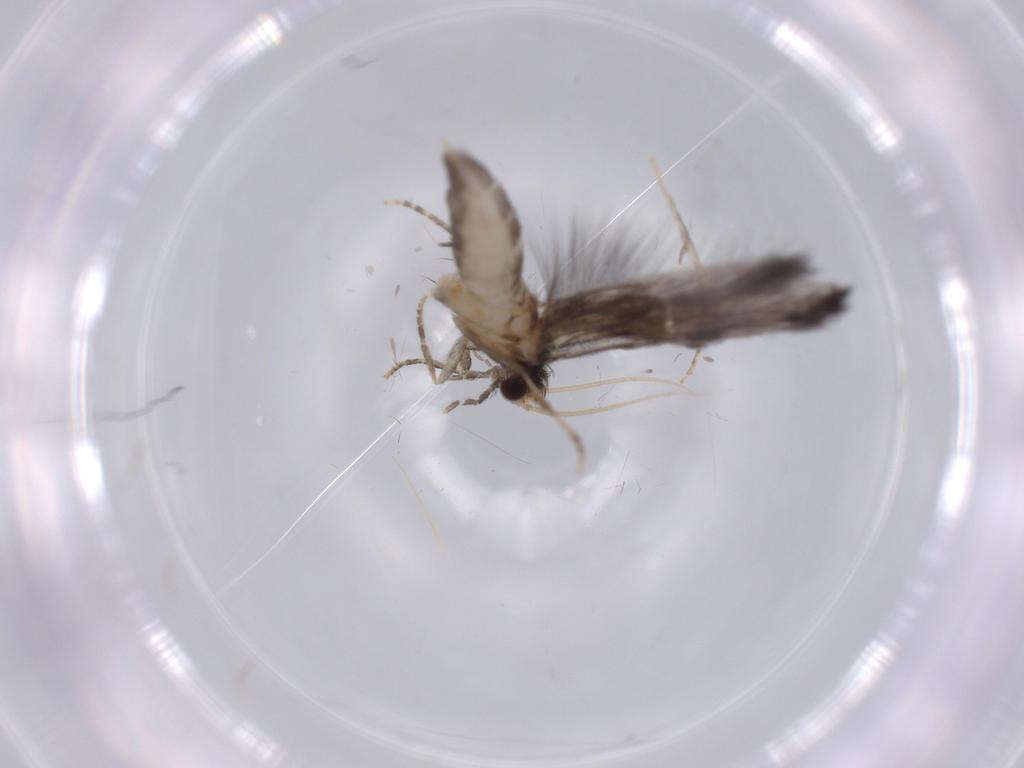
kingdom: Animalia
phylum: Arthropoda
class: Insecta
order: Trichoptera
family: Hydroptilidae
